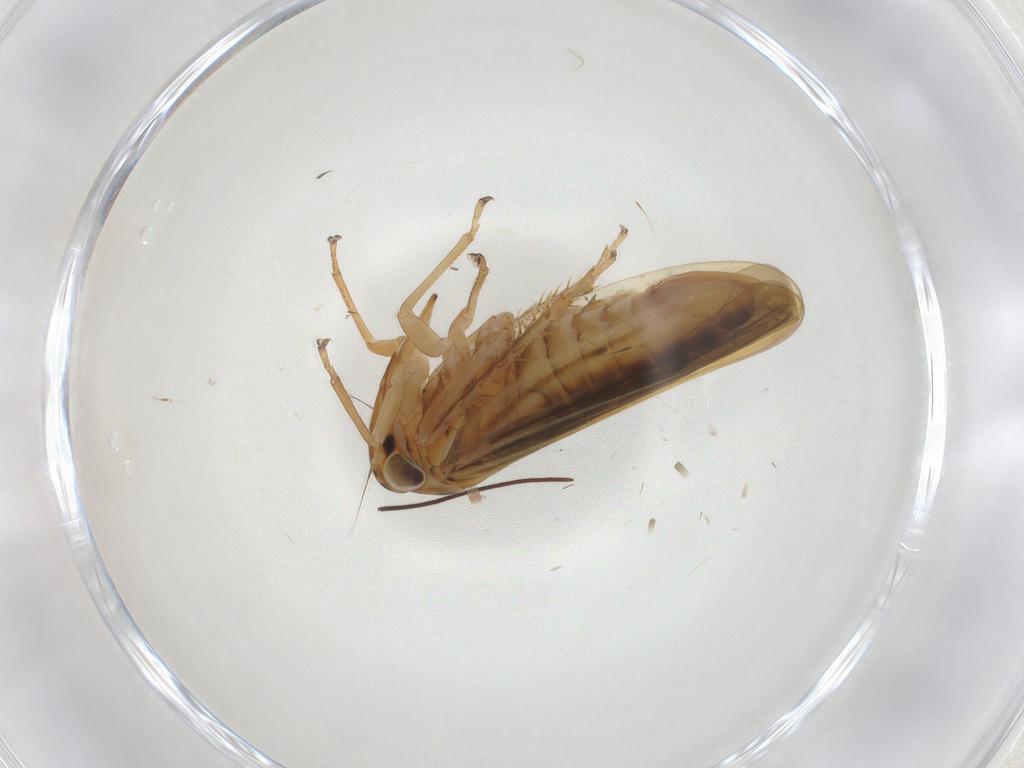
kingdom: Animalia
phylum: Arthropoda
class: Insecta
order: Hemiptera
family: Cicadellidae
